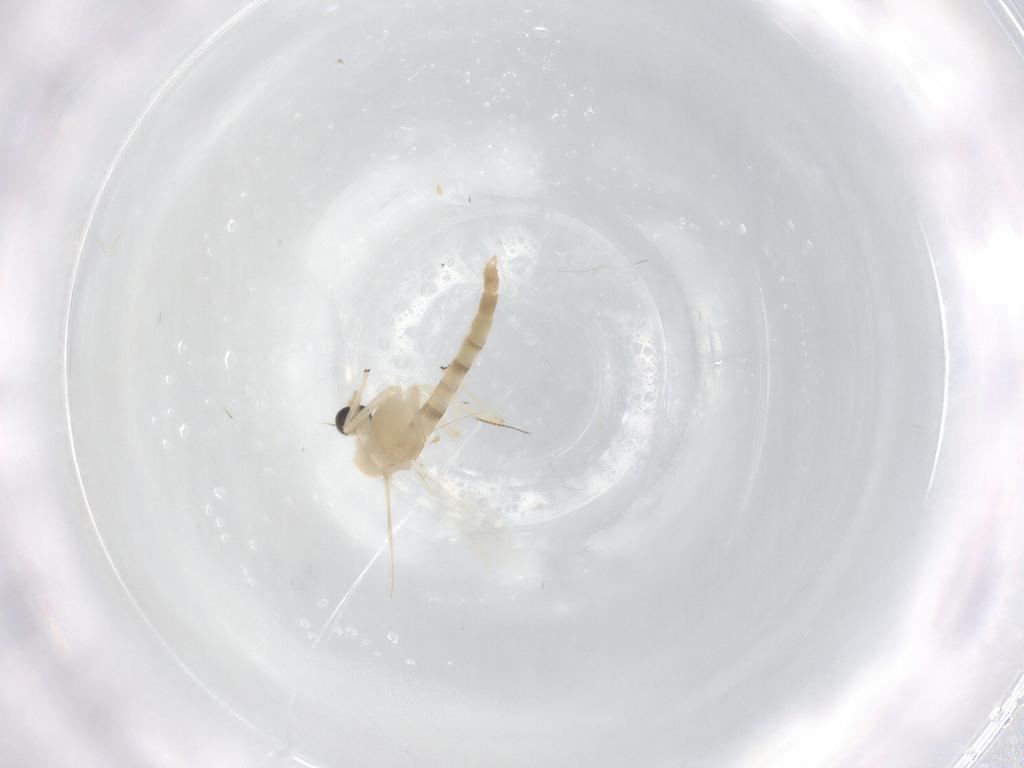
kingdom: Animalia
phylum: Arthropoda
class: Insecta
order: Diptera
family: Chironomidae
